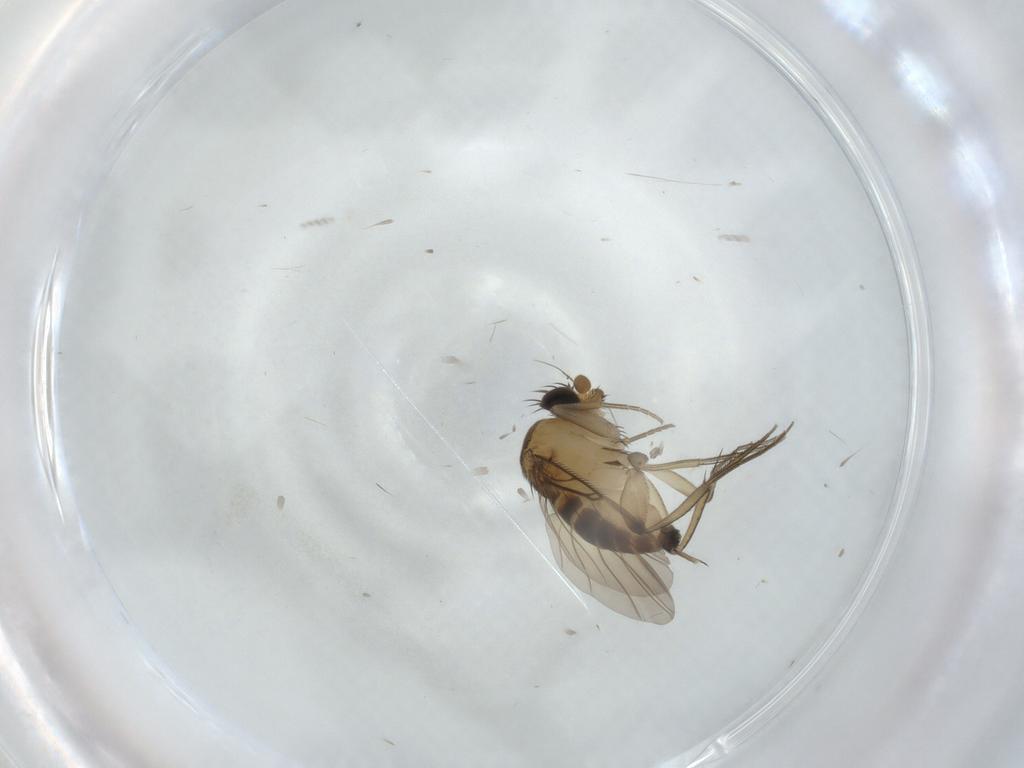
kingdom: Animalia
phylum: Arthropoda
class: Insecta
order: Diptera
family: Phoridae
